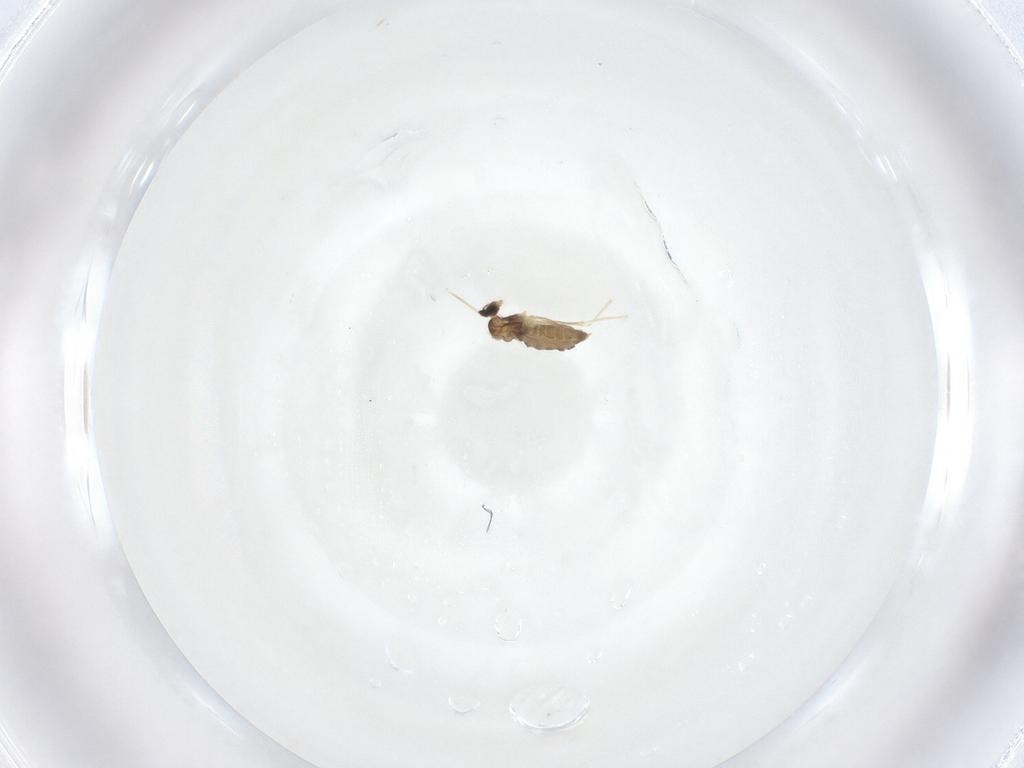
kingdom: Animalia
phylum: Arthropoda
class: Insecta
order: Diptera
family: Cecidomyiidae
